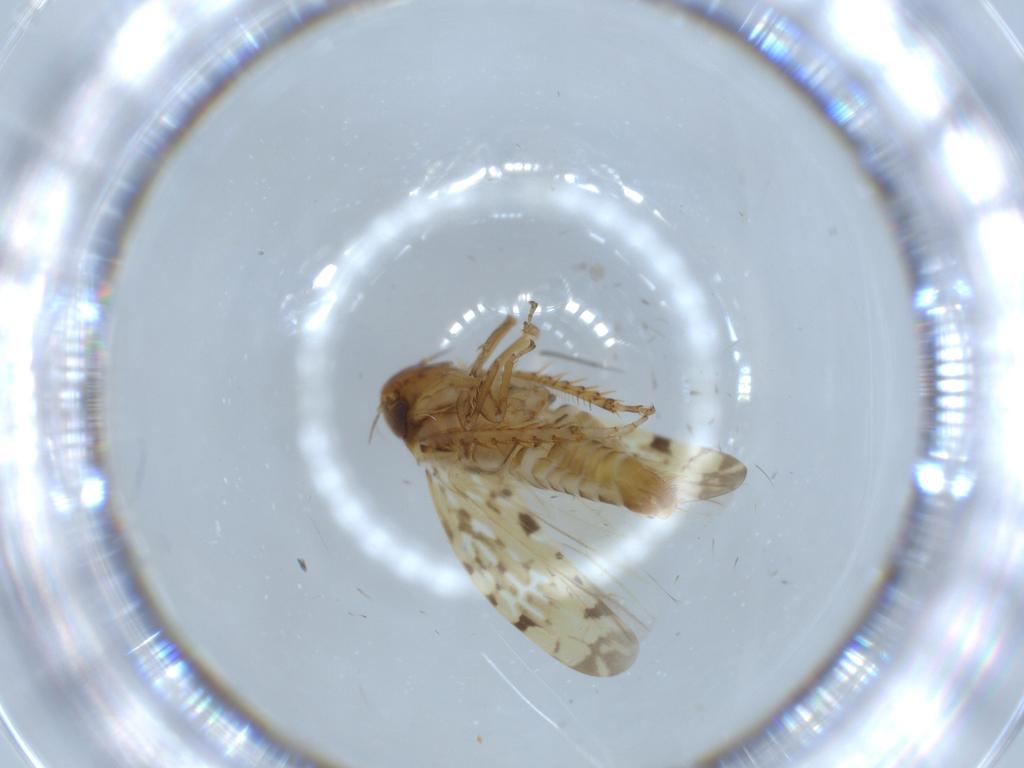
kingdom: Animalia
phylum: Arthropoda
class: Insecta
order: Hemiptera
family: Cicadellidae
